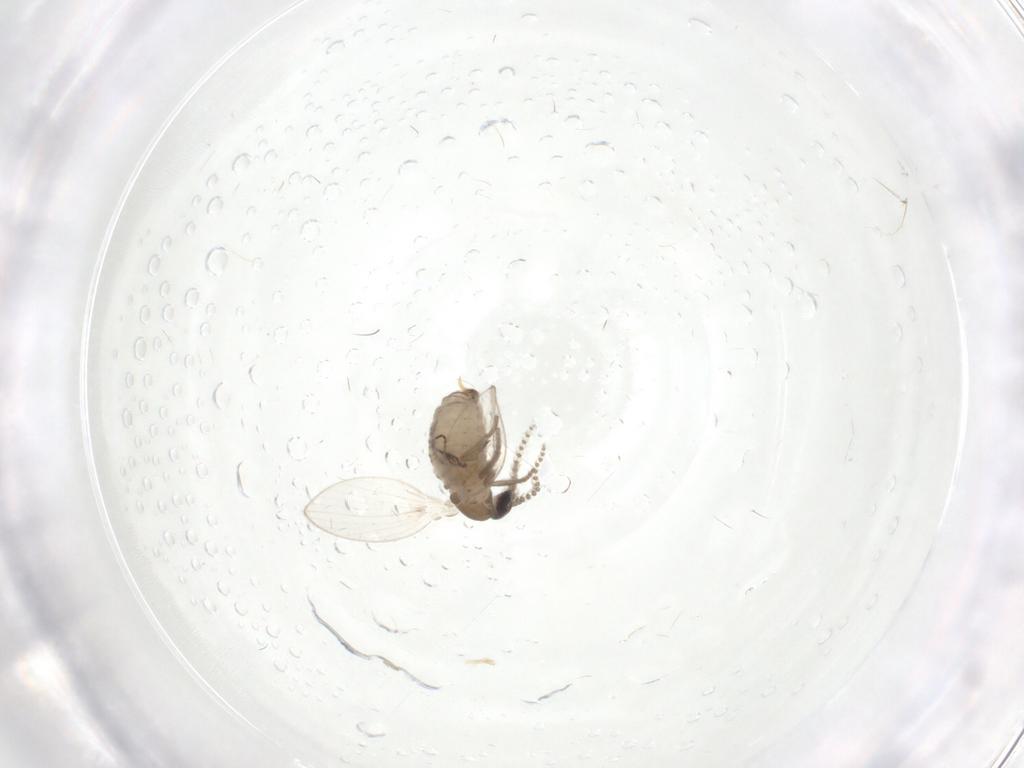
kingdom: Animalia
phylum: Arthropoda
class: Insecta
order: Diptera
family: Psychodidae
